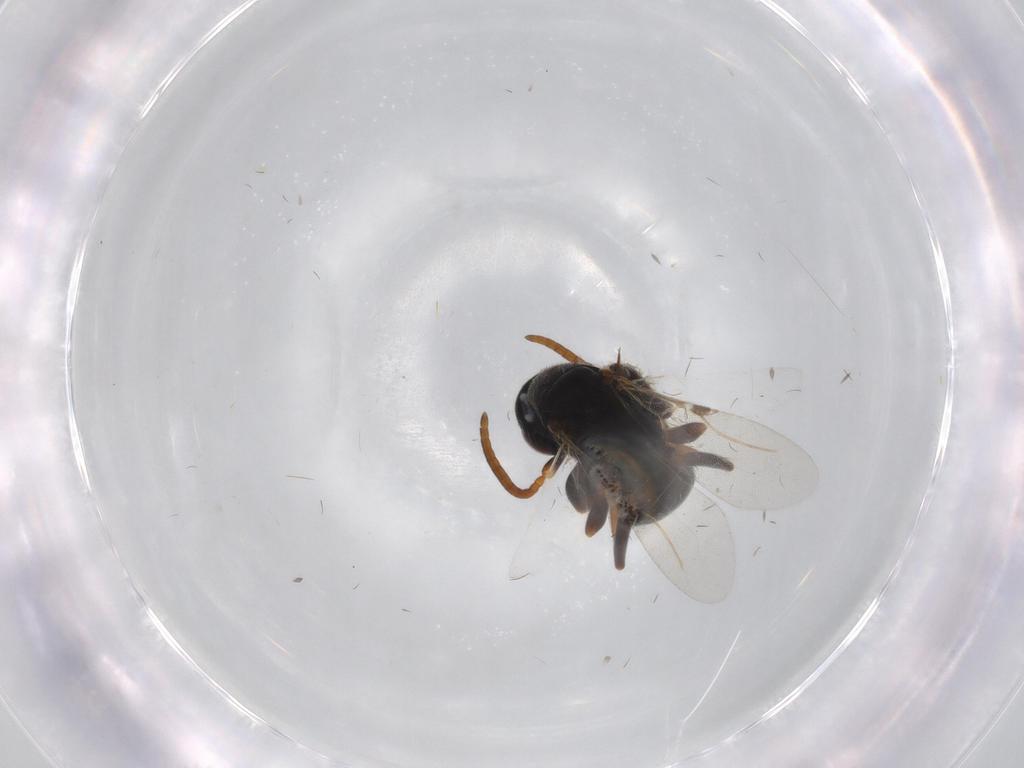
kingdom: Animalia
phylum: Arthropoda
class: Insecta
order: Hymenoptera
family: Bethylidae
